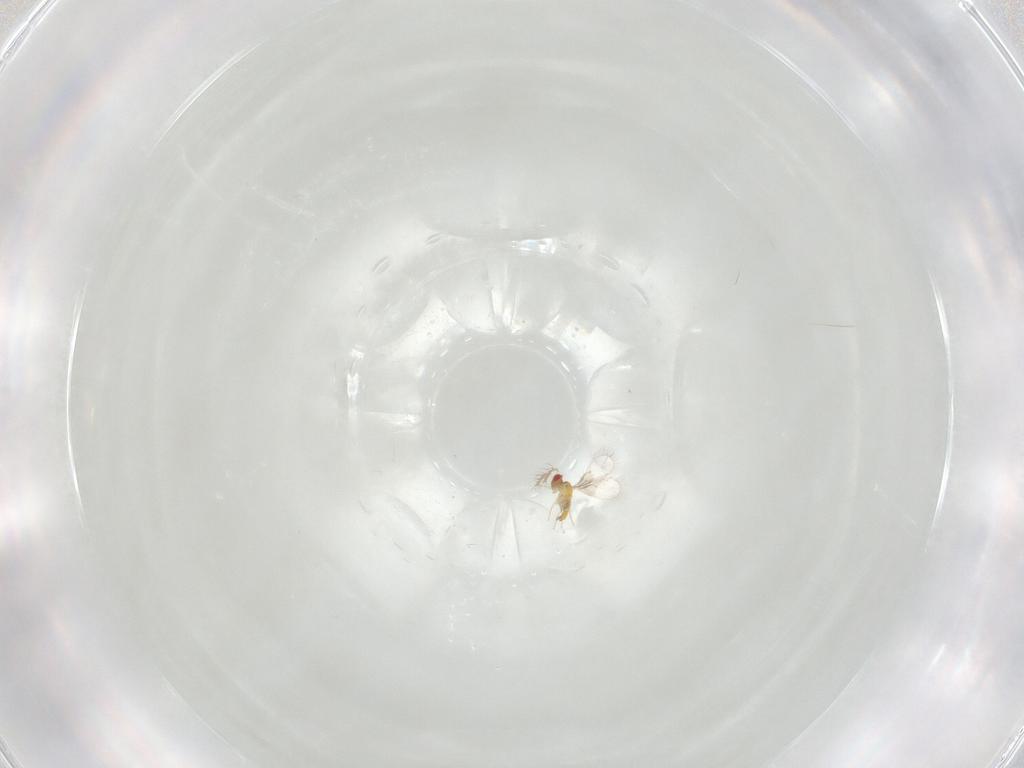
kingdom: Animalia
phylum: Arthropoda
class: Insecta
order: Hymenoptera
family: Trichogrammatidae
